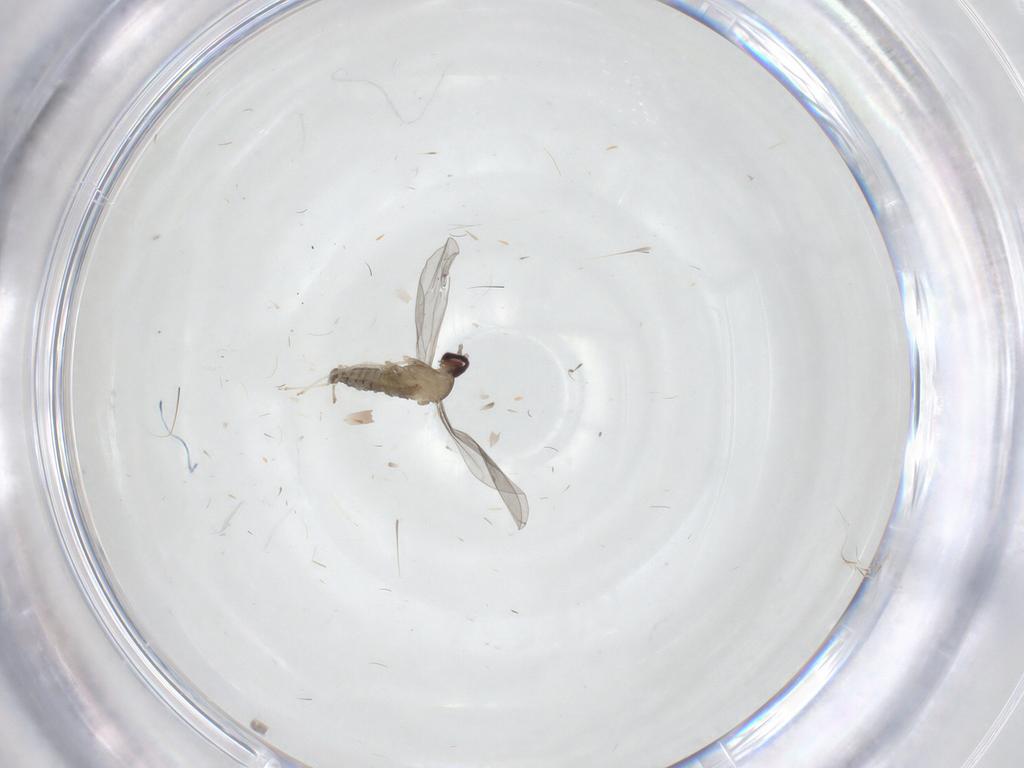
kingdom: Animalia
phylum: Arthropoda
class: Insecta
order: Diptera
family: Cecidomyiidae
